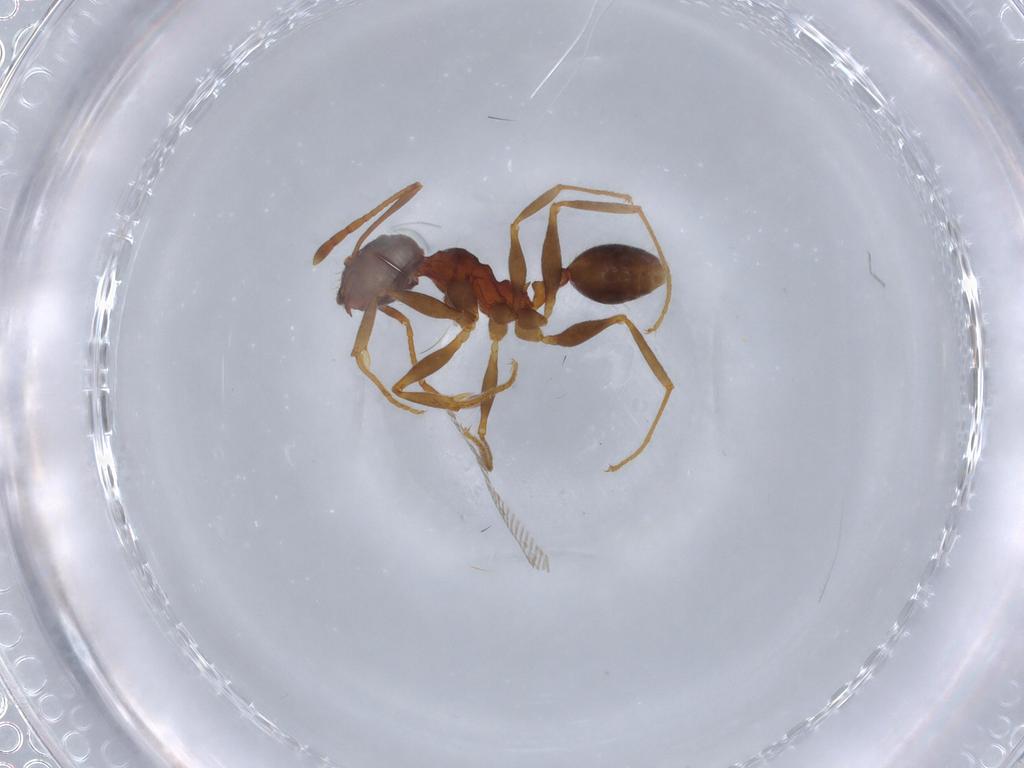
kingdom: Animalia
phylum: Arthropoda
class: Insecta
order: Hymenoptera
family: Formicidae
